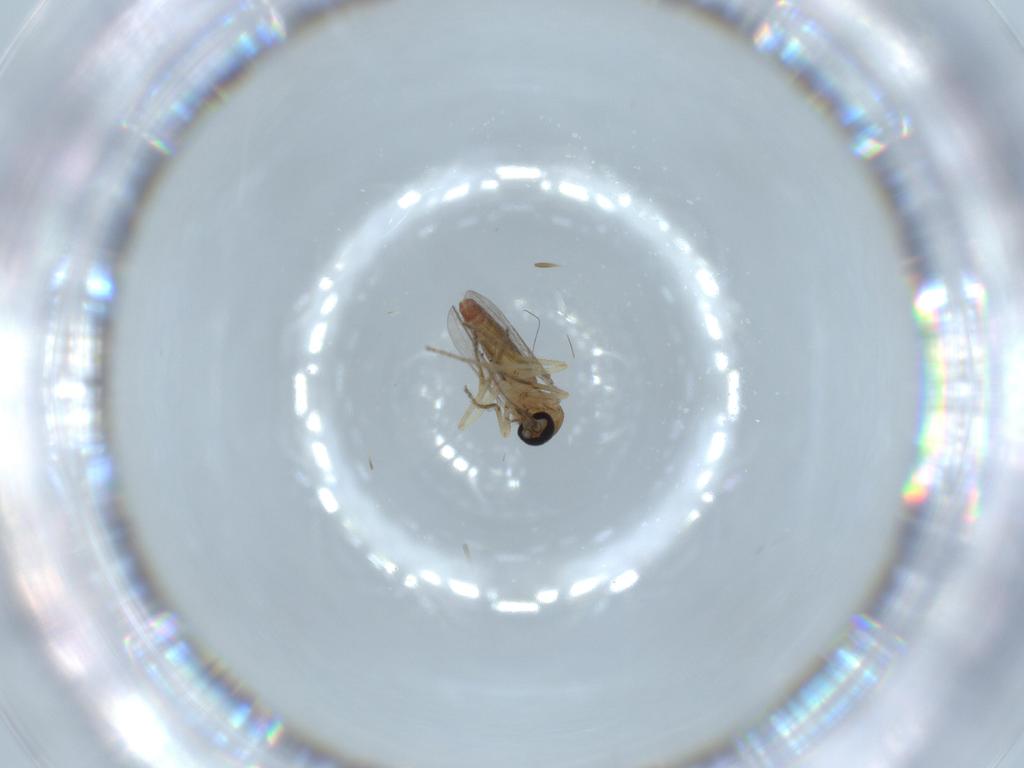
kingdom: Animalia
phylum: Arthropoda
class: Insecta
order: Diptera
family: Ceratopogonidae
